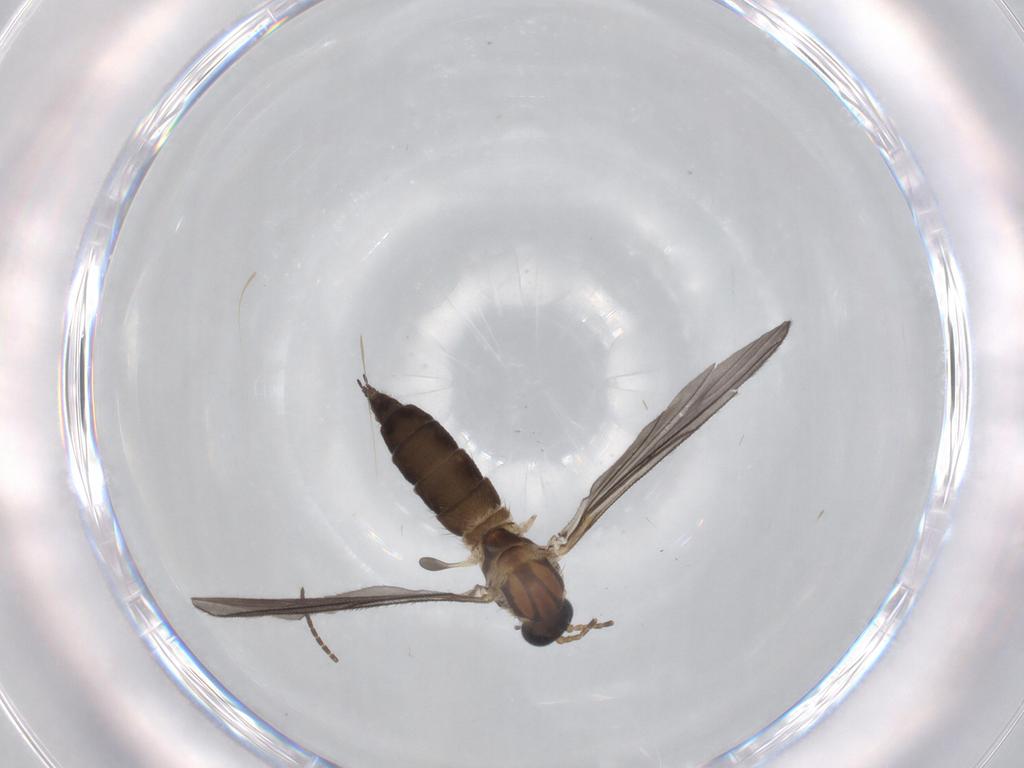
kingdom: Animalia
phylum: Arthropoda
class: Insecta
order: Diptera
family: Sciaridae
